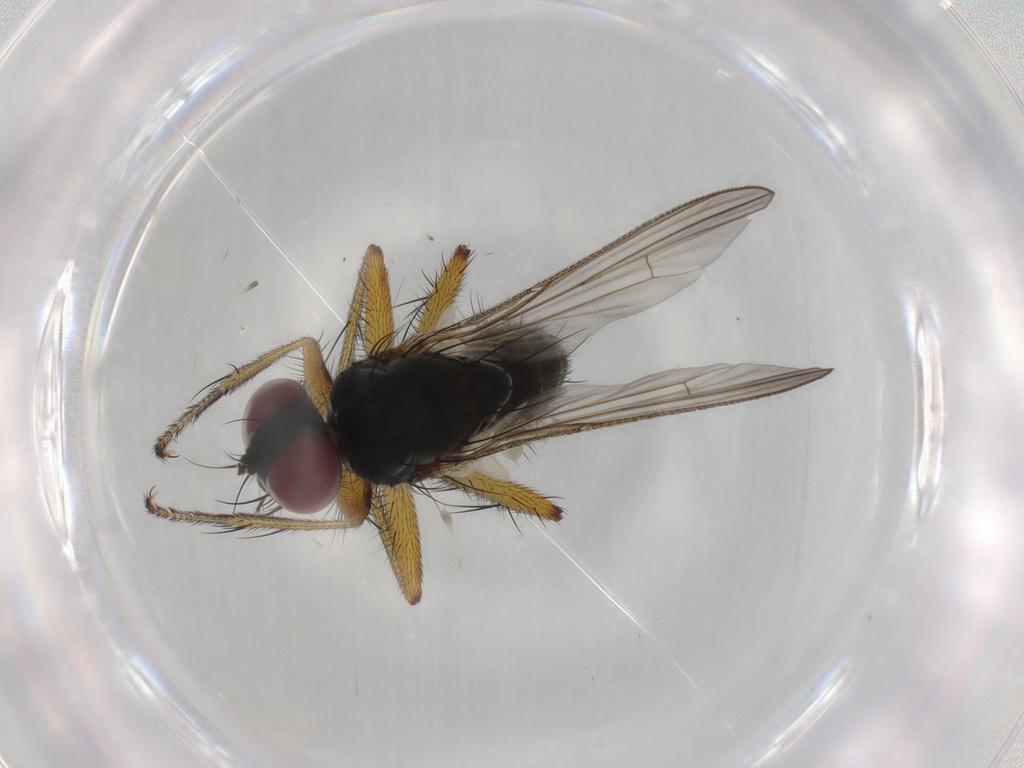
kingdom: Animalia
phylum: Arthropoda
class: Insecta
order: Diptera
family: Muscidae
